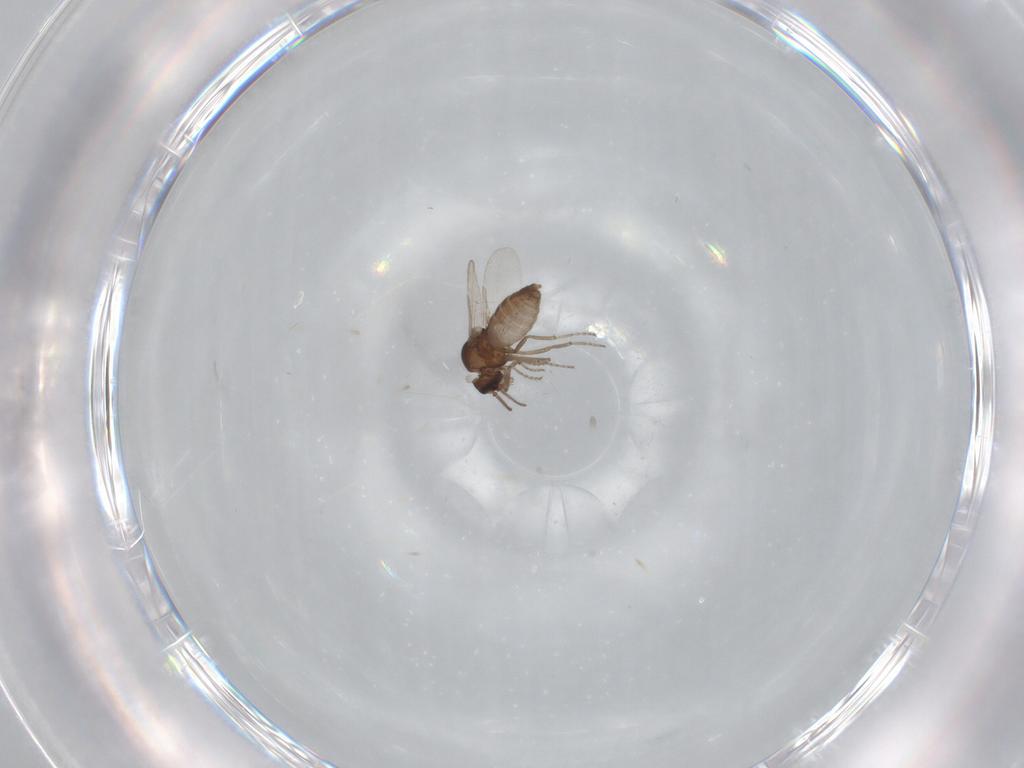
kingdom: Animalia
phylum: Arthropoda
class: Insecta
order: Diptera
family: Ceratopogonidae
